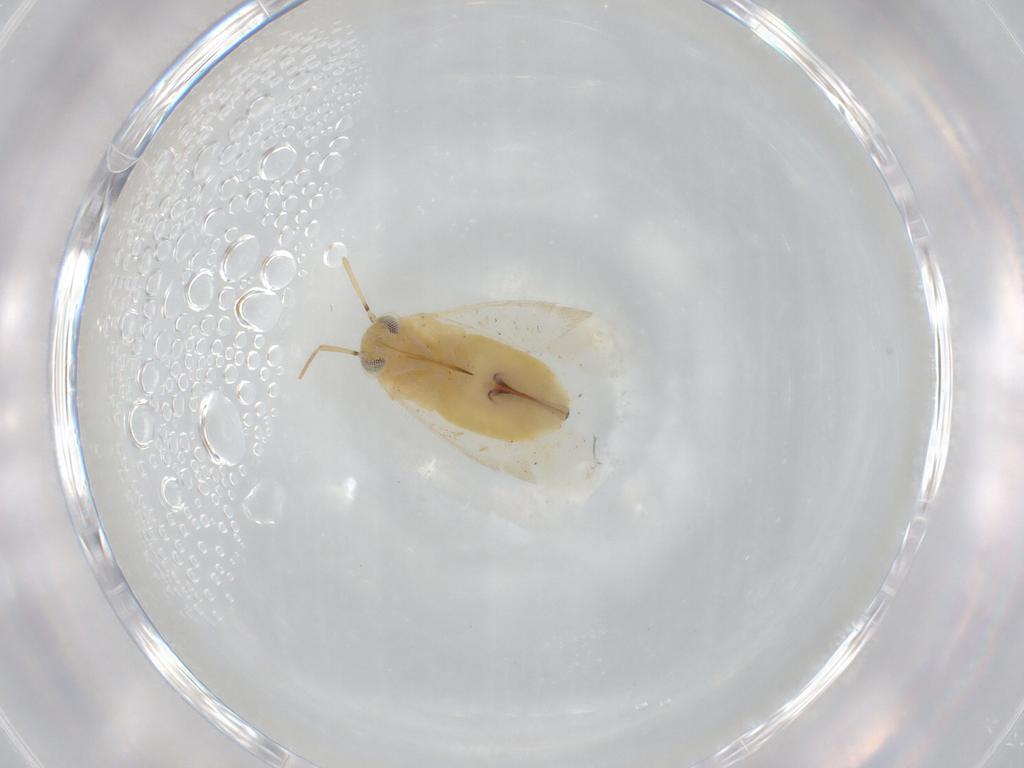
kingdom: Animalia
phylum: Arthropoda
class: Insecta
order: Hemiptera
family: Miridae
